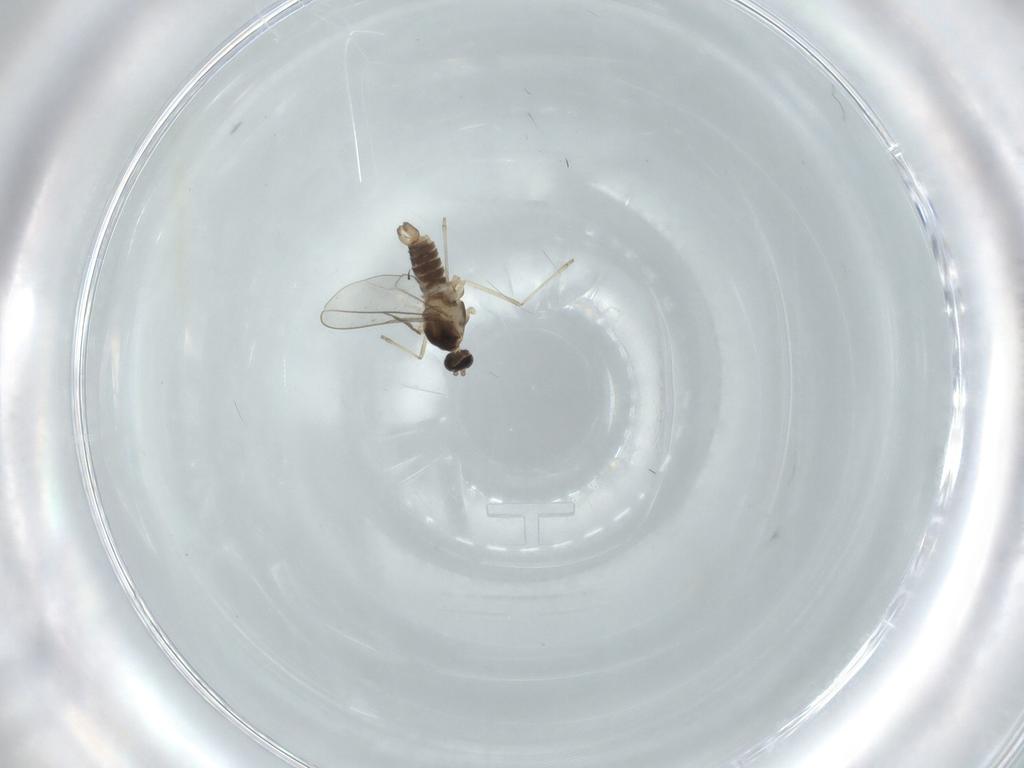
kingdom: Animalia
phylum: Arthropoda
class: Insecta
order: Diptera
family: Cecidomyiidae
